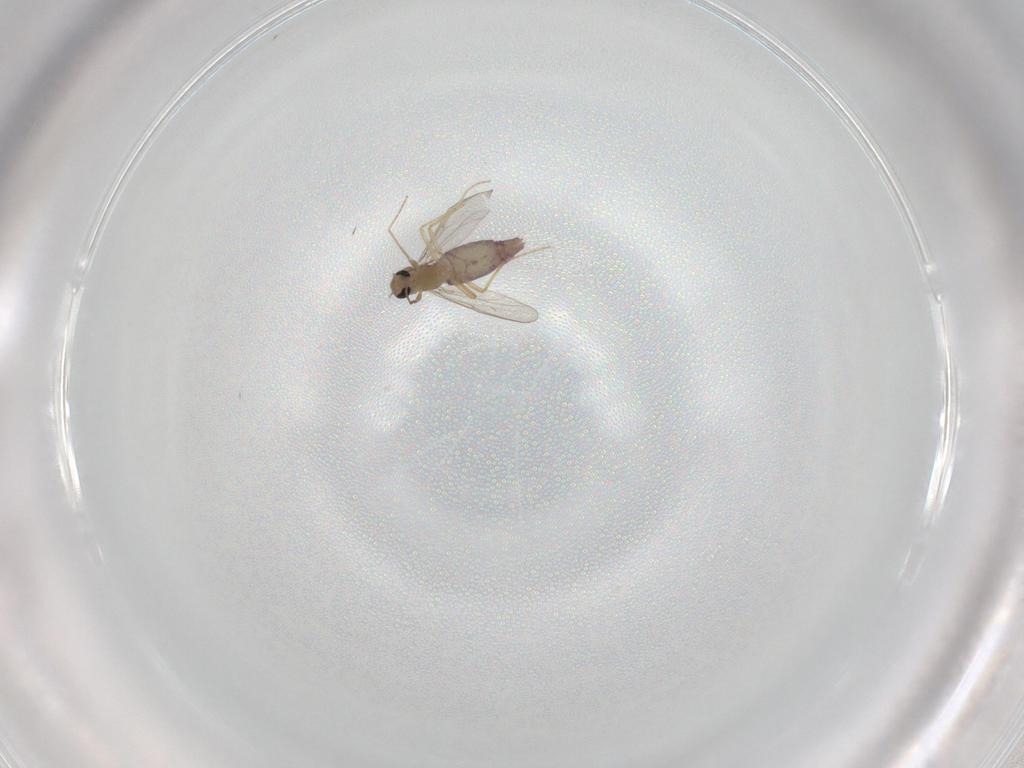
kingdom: Animalia
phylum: Arthropoda
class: Insecta
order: Diptera
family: Chironomidae
